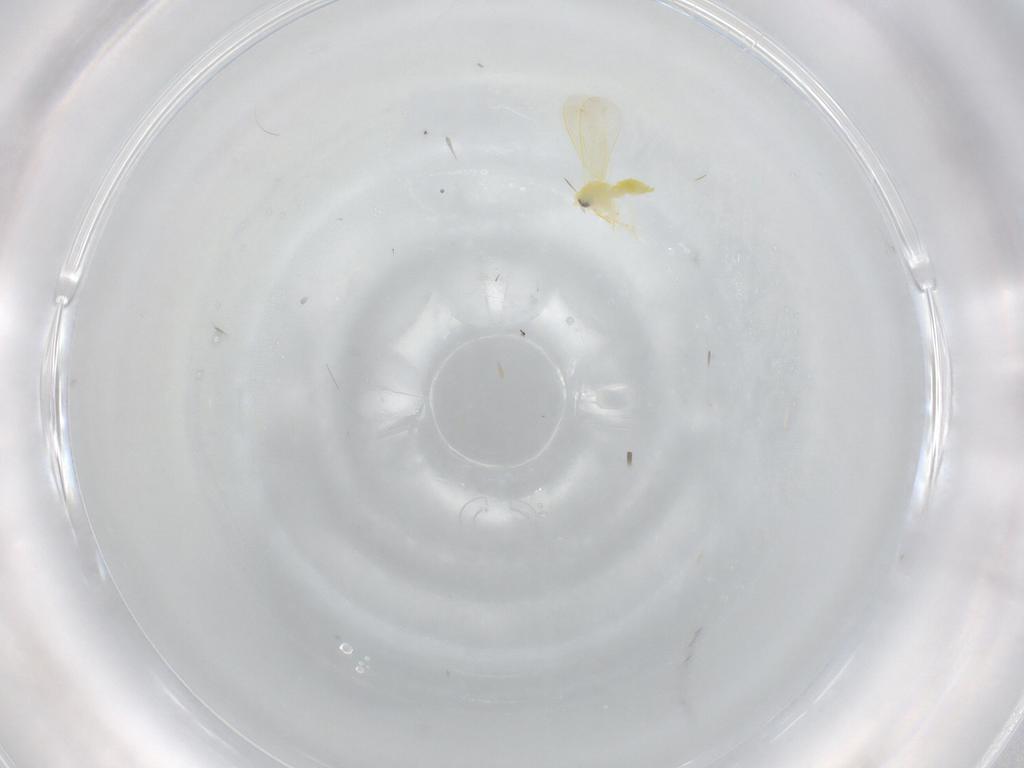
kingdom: Animalia
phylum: Arthropoda
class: Insecta
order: Hemiptera
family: Aleyrodidae
